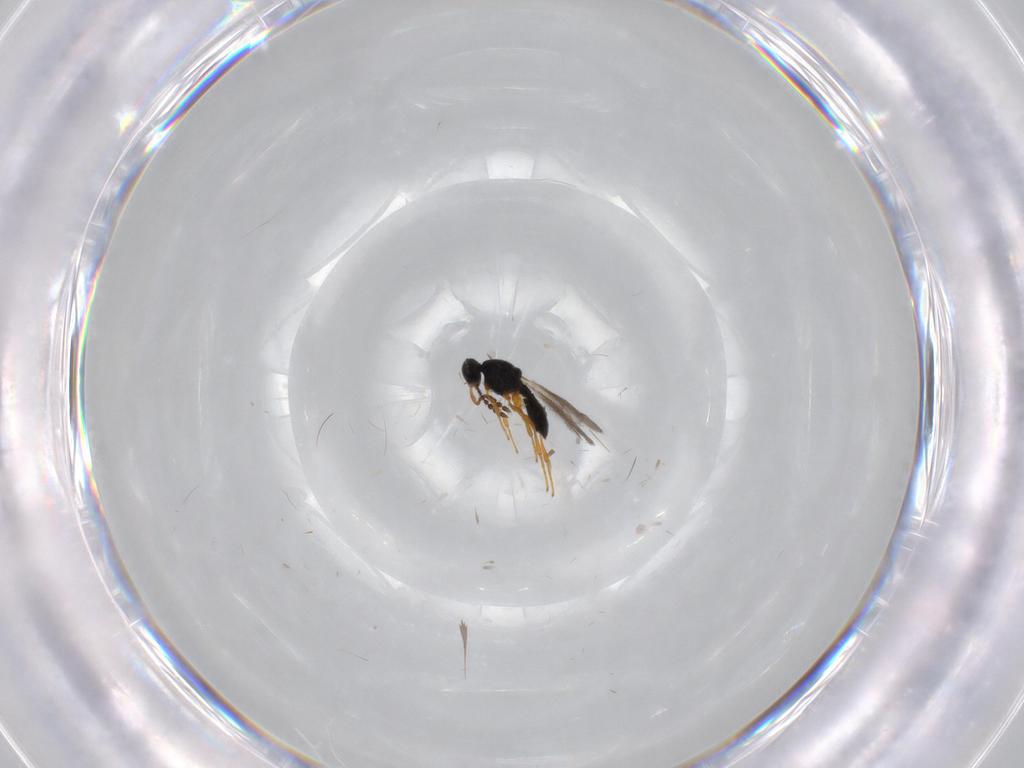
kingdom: Animalia
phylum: Arthropoda
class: Insecta
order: Hymenoptera
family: Platygastridae
